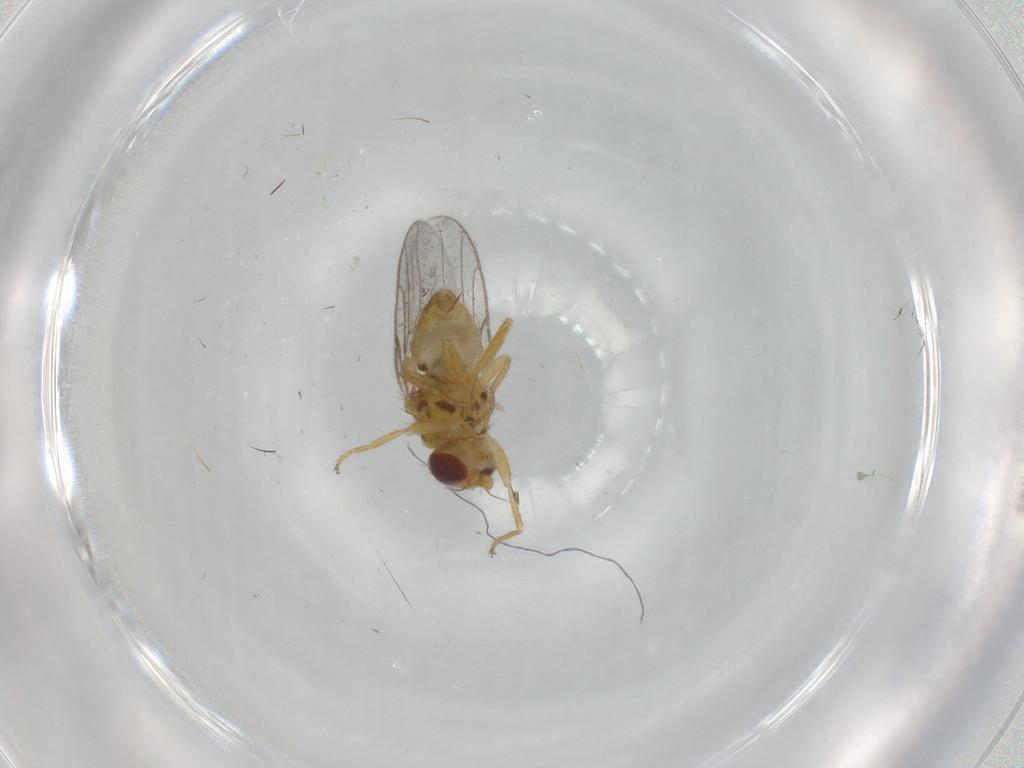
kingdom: Animalia
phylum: Arthropoda
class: Insecta
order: Diptera
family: Chloropidae
